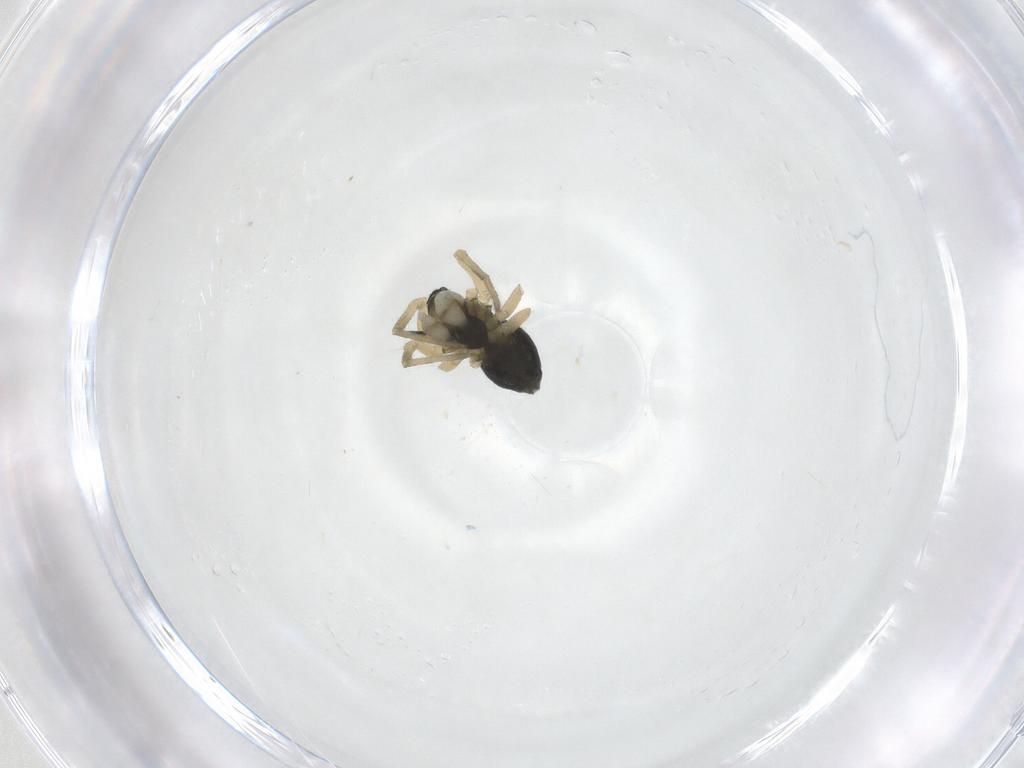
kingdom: Animalia
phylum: Arthropoda
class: Arachnida
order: Araneae
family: Linyphiidae
